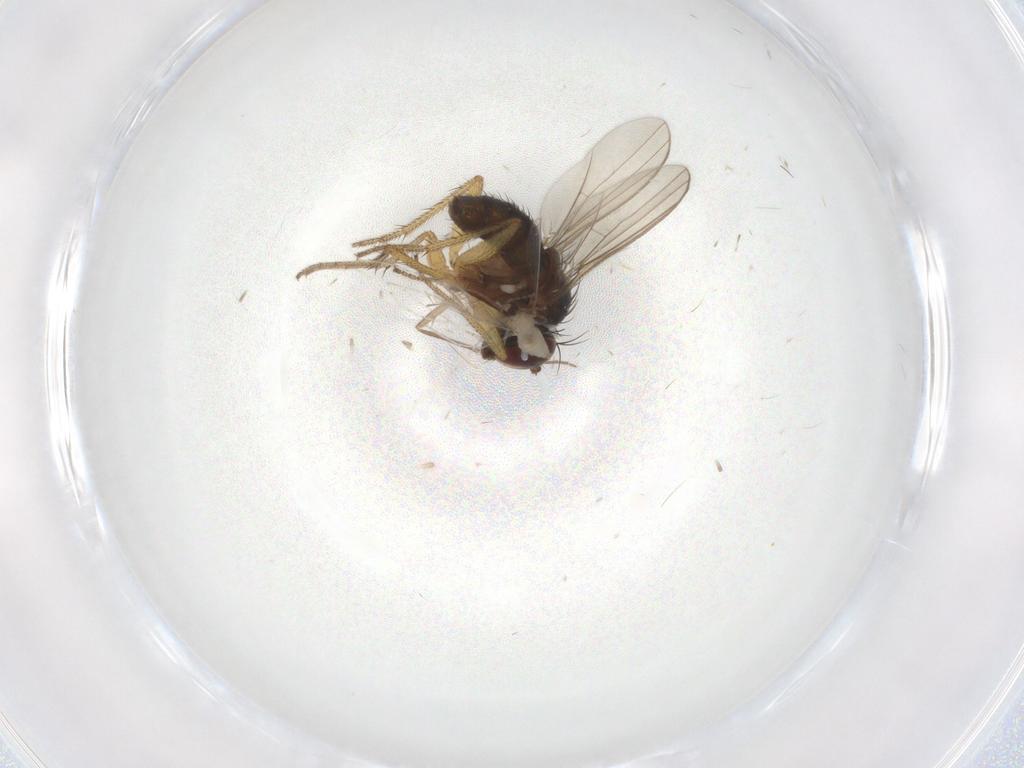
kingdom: Animalia
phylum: Arthropoda
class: Insecta
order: Diptera
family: Cecidomyiidae
